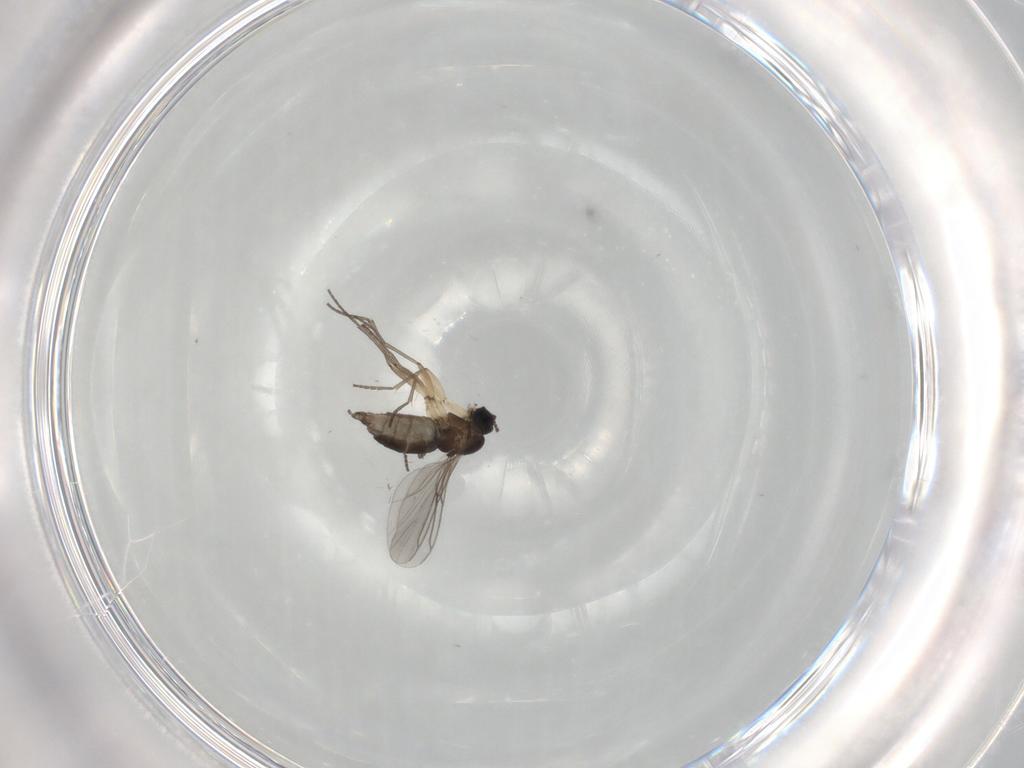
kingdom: Animalia
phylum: Arthropoda
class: Insecta
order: Diptera
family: Sciaridae
